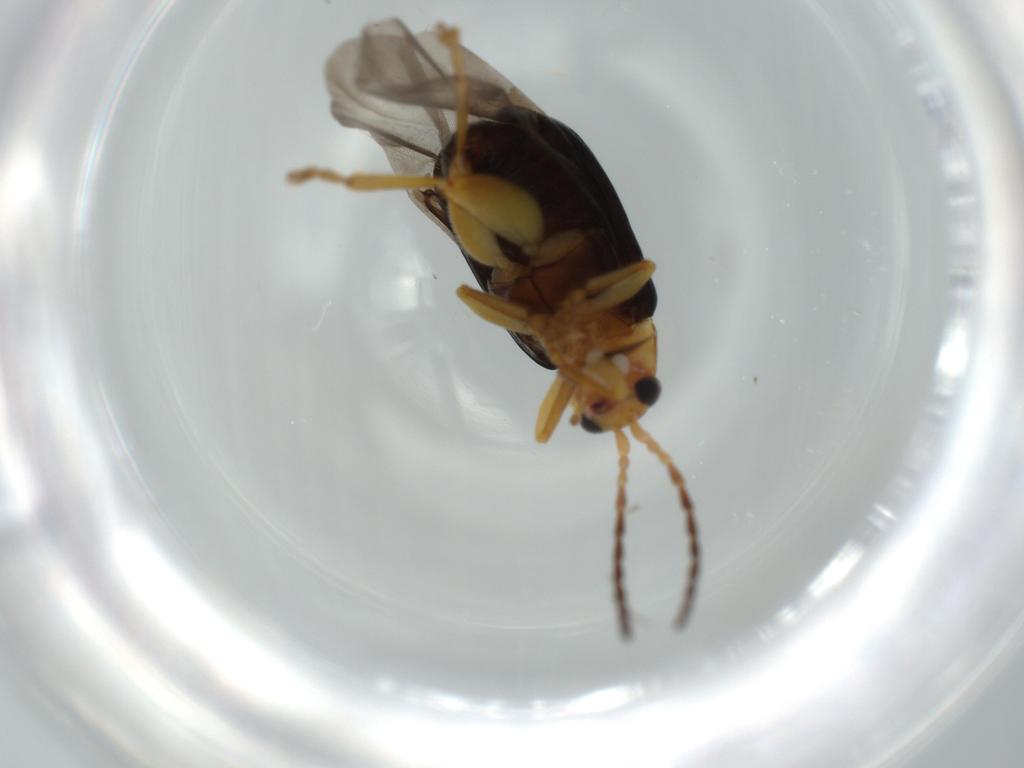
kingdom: Animalia
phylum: Arthropoda
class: Insecta
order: Coleoptera
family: Chrysomelidae
